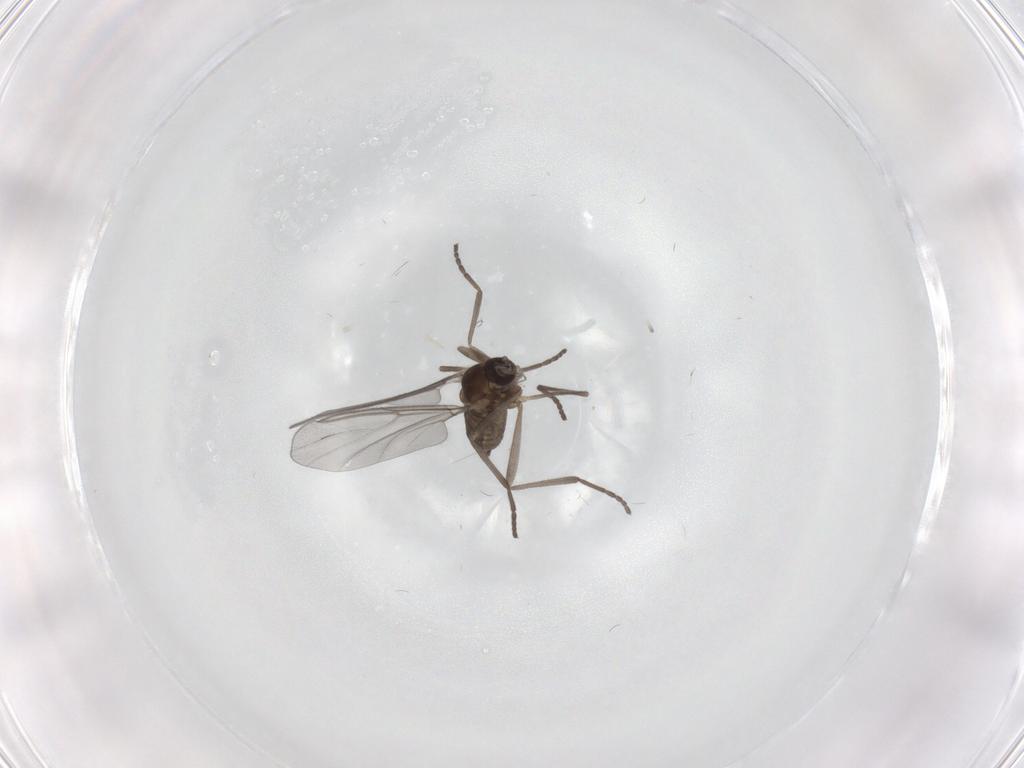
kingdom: Animalia
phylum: Arthropoda
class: Insecta
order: Diptera
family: Cecidomyiidae
